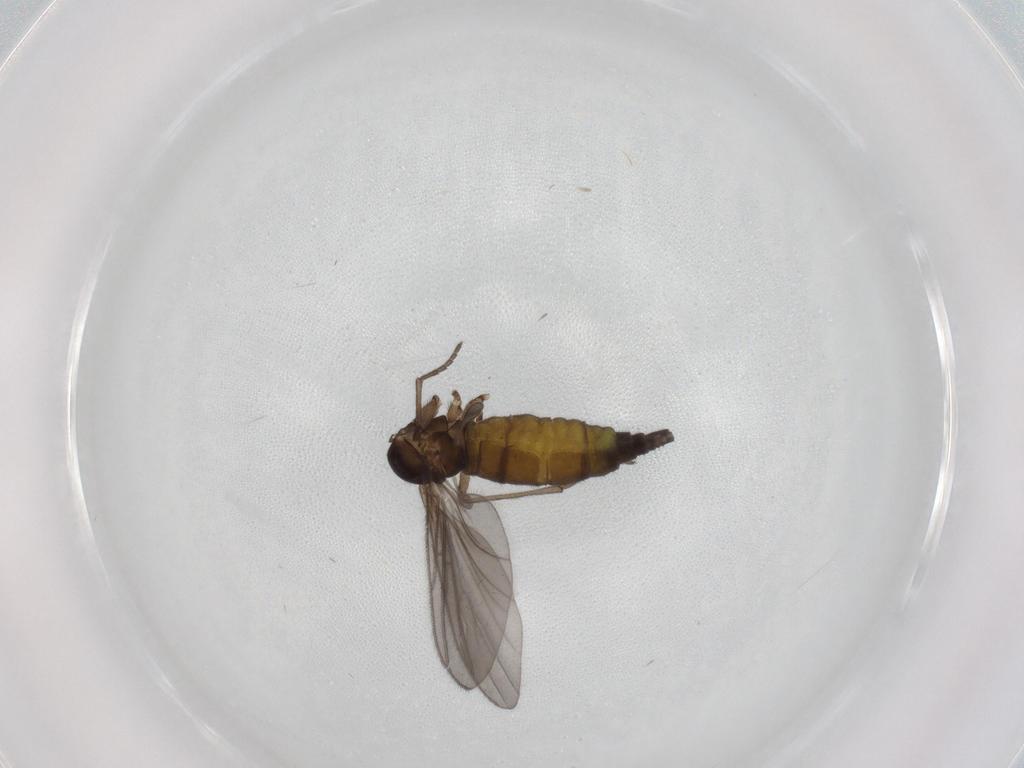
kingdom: Animalia
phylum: Arthropoda
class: Insecta
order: Diptera
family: Sciaridae
